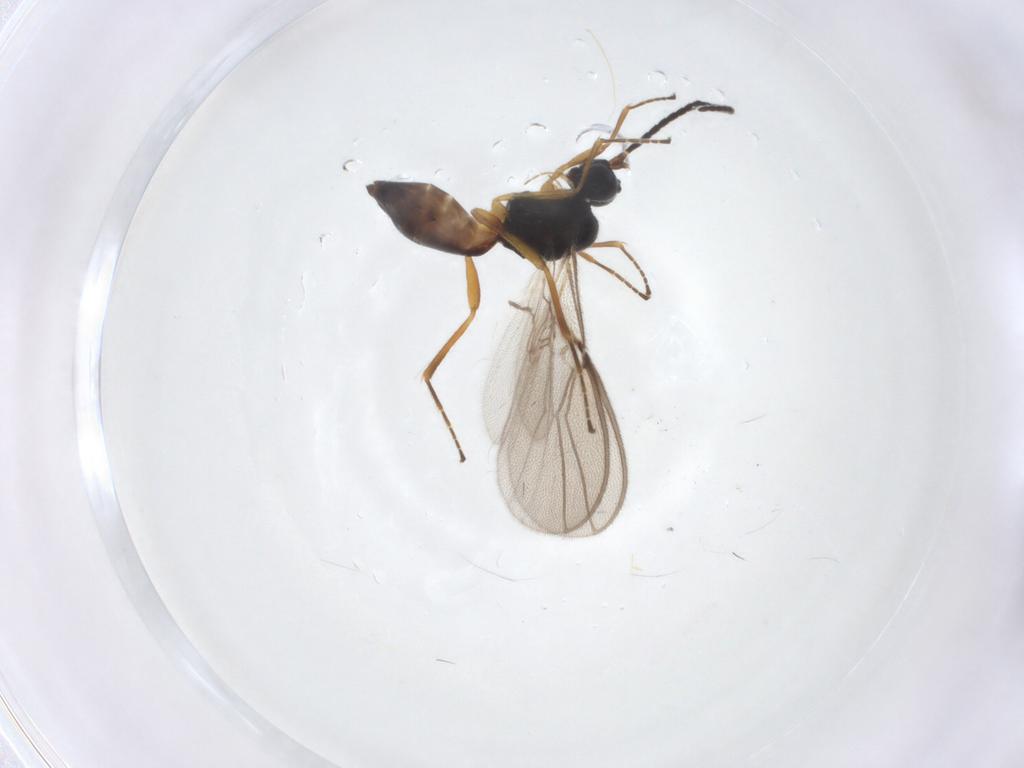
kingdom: Animalia
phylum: Arthropoda
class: Insecta
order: Hymenoptera
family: Braconidae
